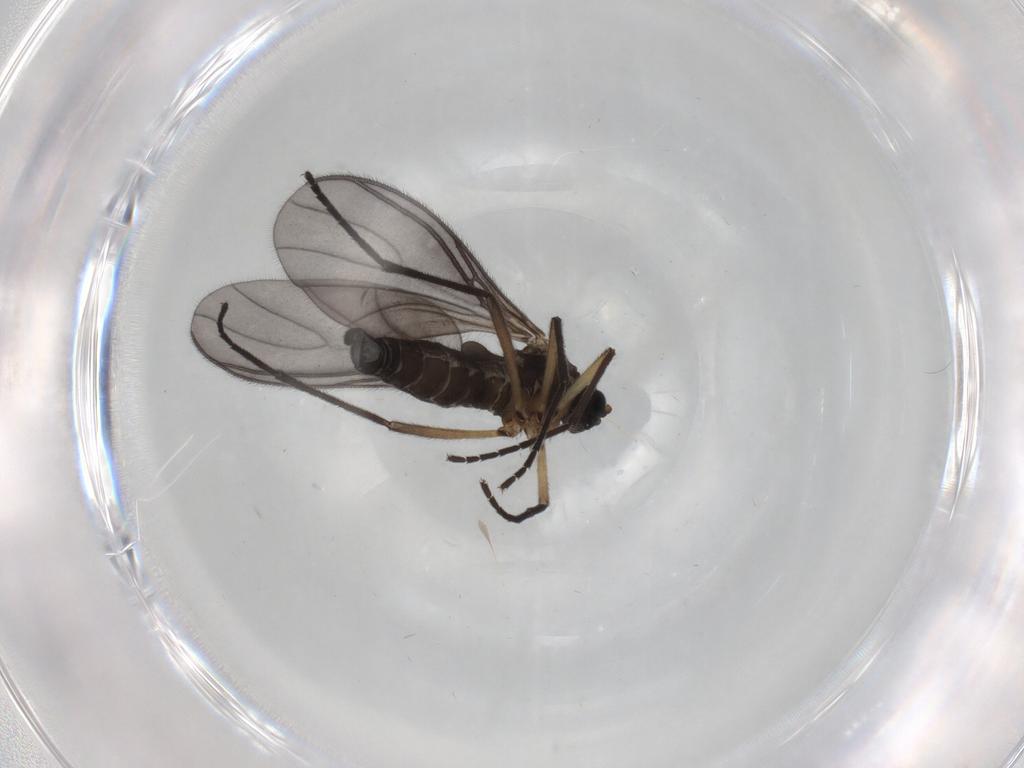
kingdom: Animalia
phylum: Arthropoda
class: Insecta
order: Diptera
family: Sciaridae
